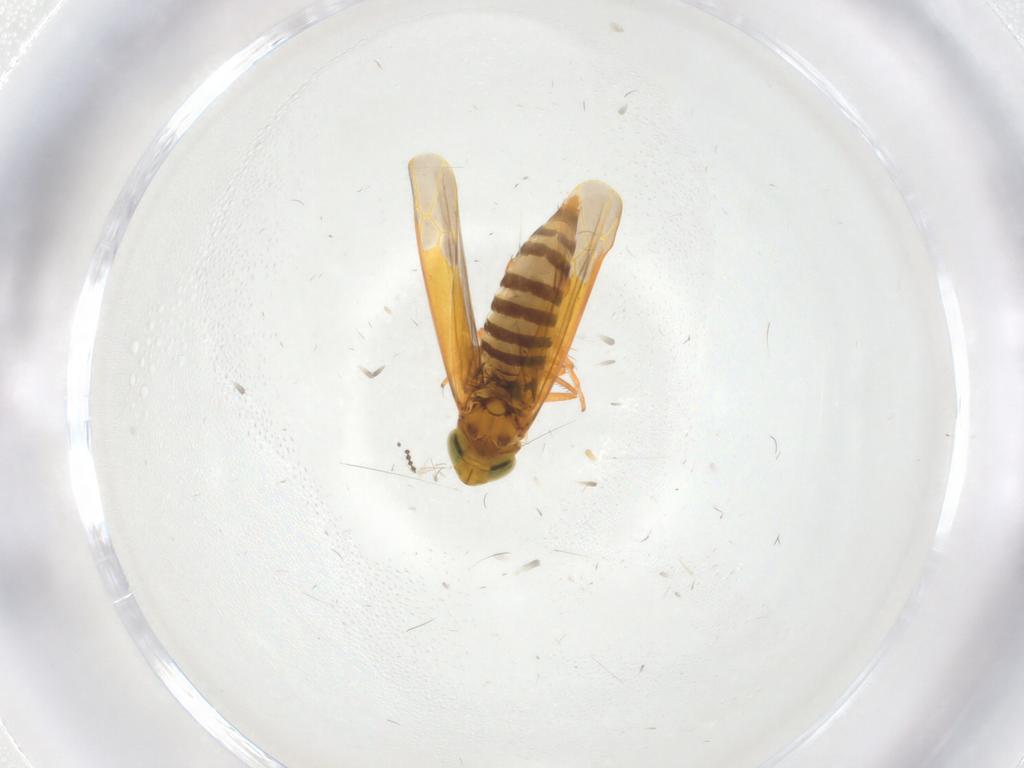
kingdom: Animalia
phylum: Arthropoda
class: Insecta
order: Hemiptera
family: Cicadellidae
